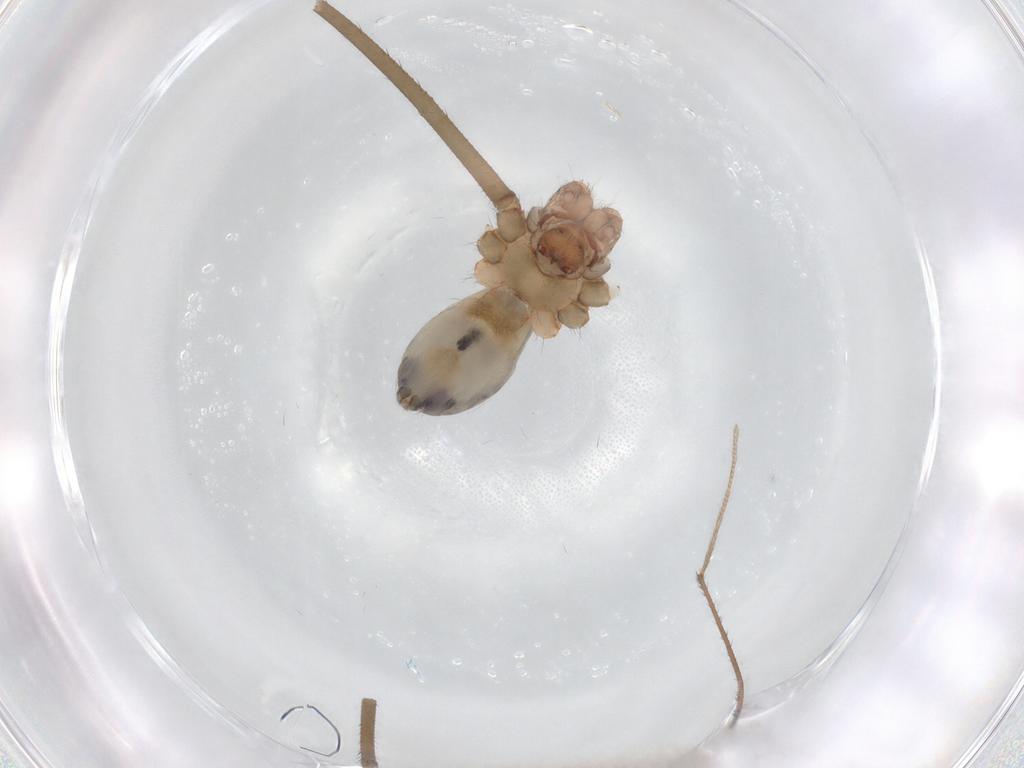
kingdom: Animalia
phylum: Arthropoda
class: Arachnida
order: Araneae
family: Pholcidae
